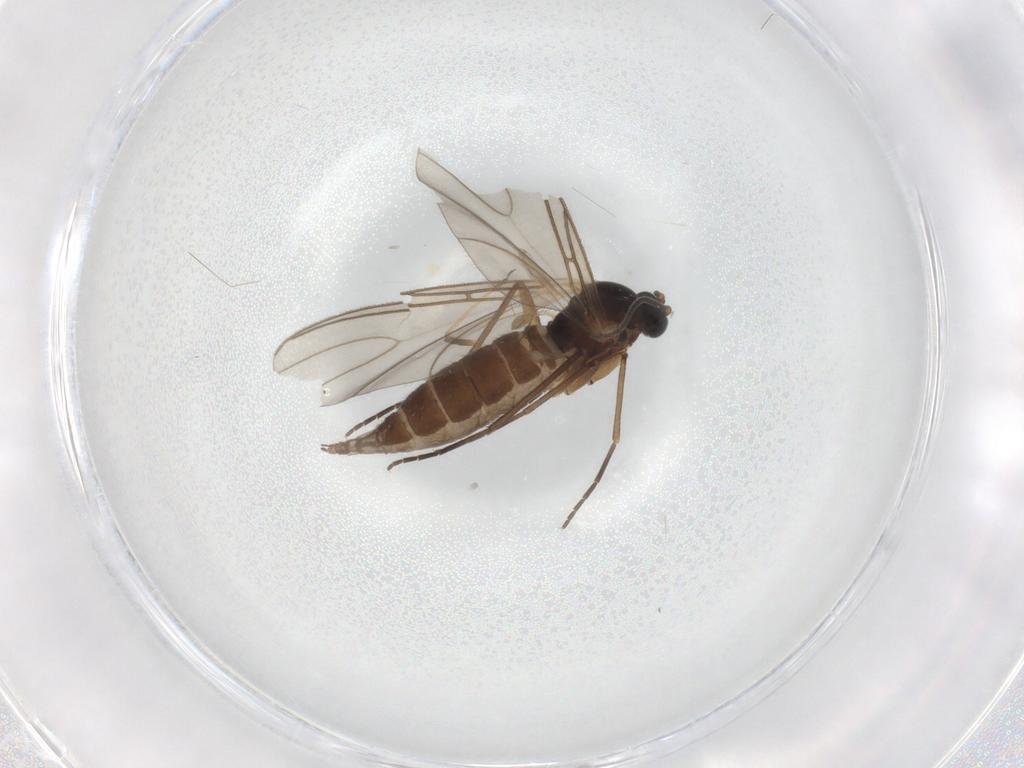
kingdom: Animalia
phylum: Arthropoda
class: Insecta
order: Diptera
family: Sciaridae
